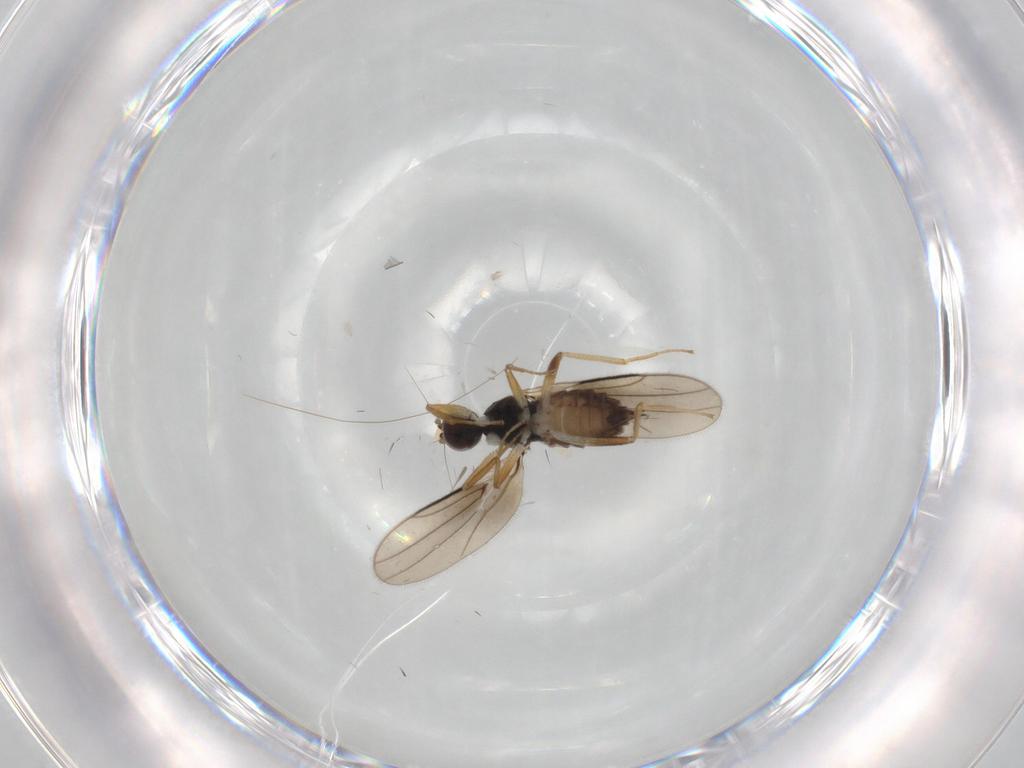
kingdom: Animalia
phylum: Arthropoda
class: Insecta
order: Diptera
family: Hybotidae
